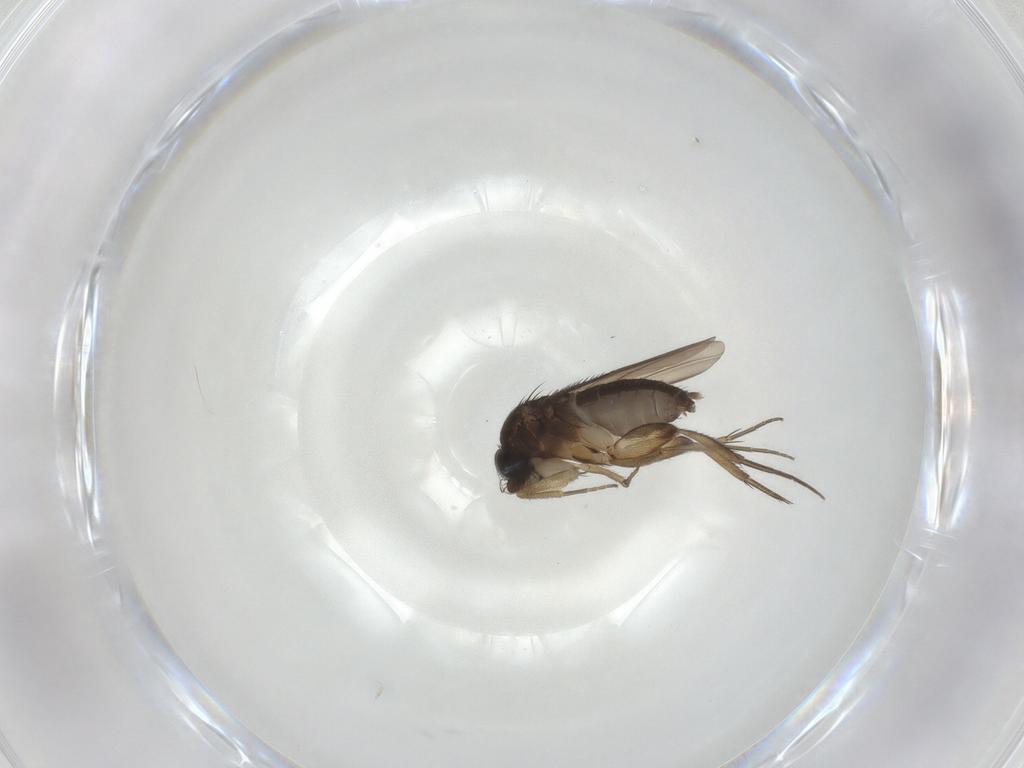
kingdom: Animalia
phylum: Arthropoda
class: Insecta
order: Diptera
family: Phoridae
